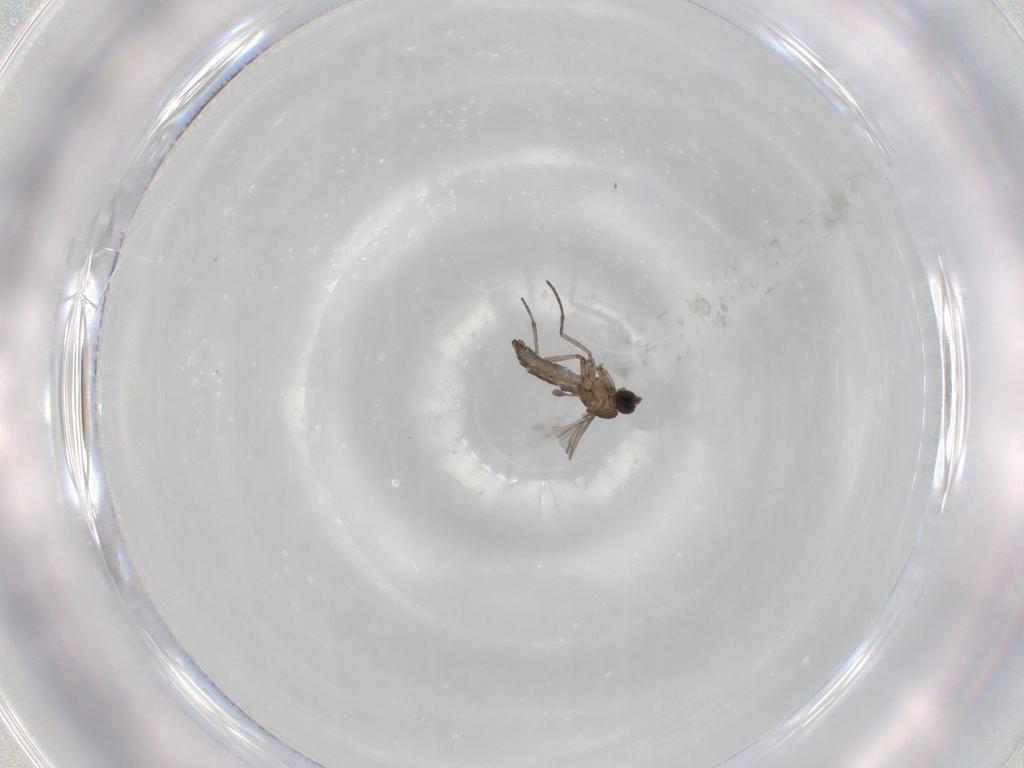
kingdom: Animalia
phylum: Arthropoda
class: Insecta
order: Diptera
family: Sciaridae
